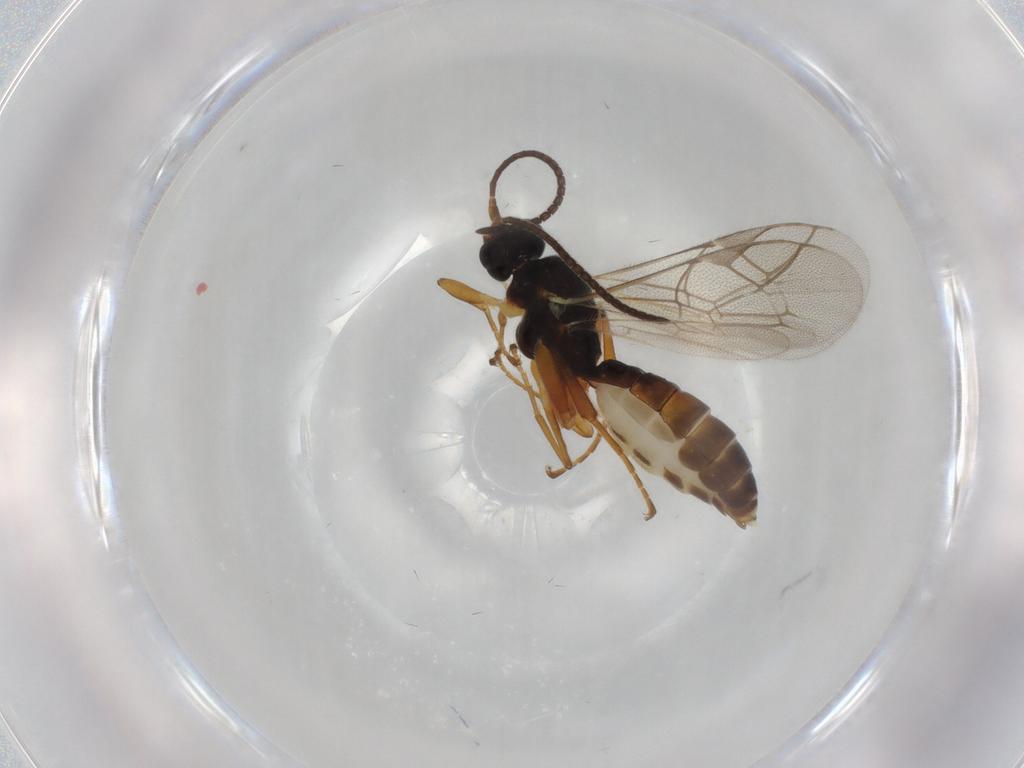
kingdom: Animalia
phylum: Arthropoda
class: Insecta
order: Hymenoptera
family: Ichneumonidae
